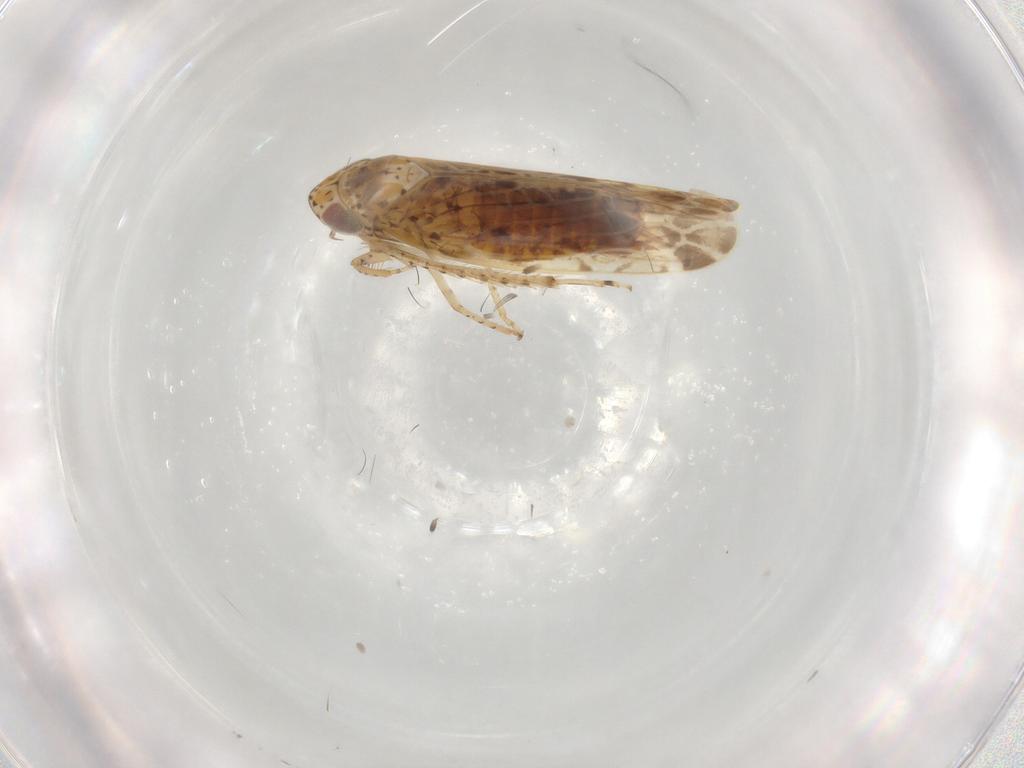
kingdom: Animalia
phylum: Arthropoda
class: Insecta
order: Hemiptera
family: Cicadellidae
